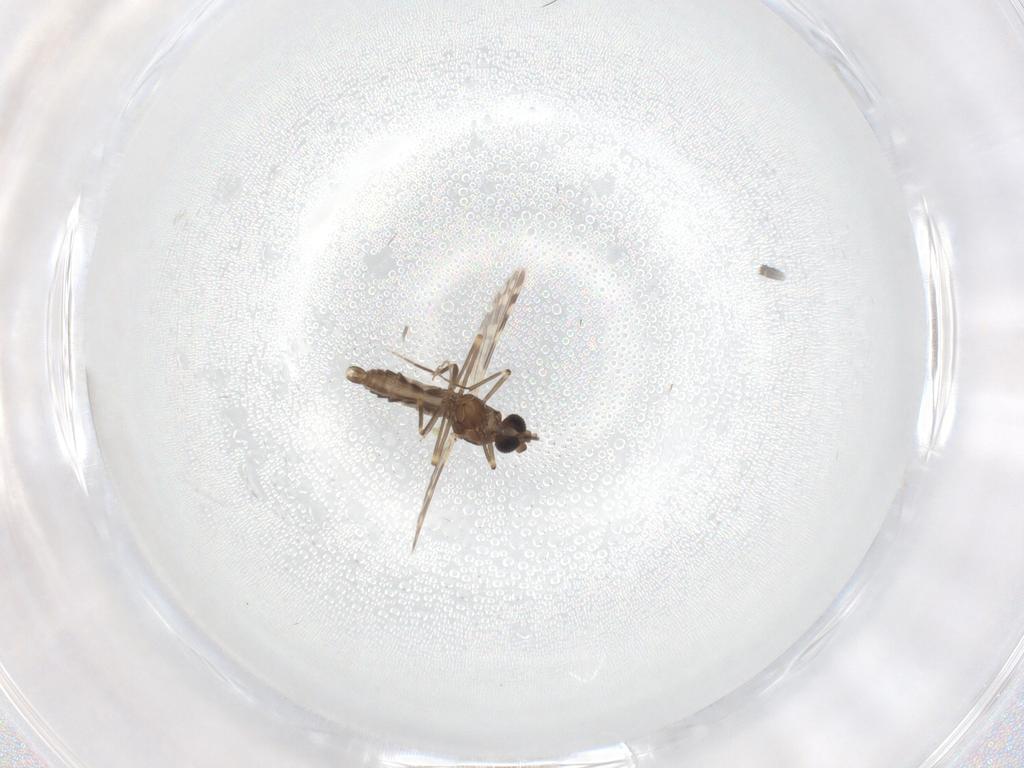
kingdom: Animalia
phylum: Arthropoda
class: Insecta
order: Diptera
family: Ceratopogonidae
